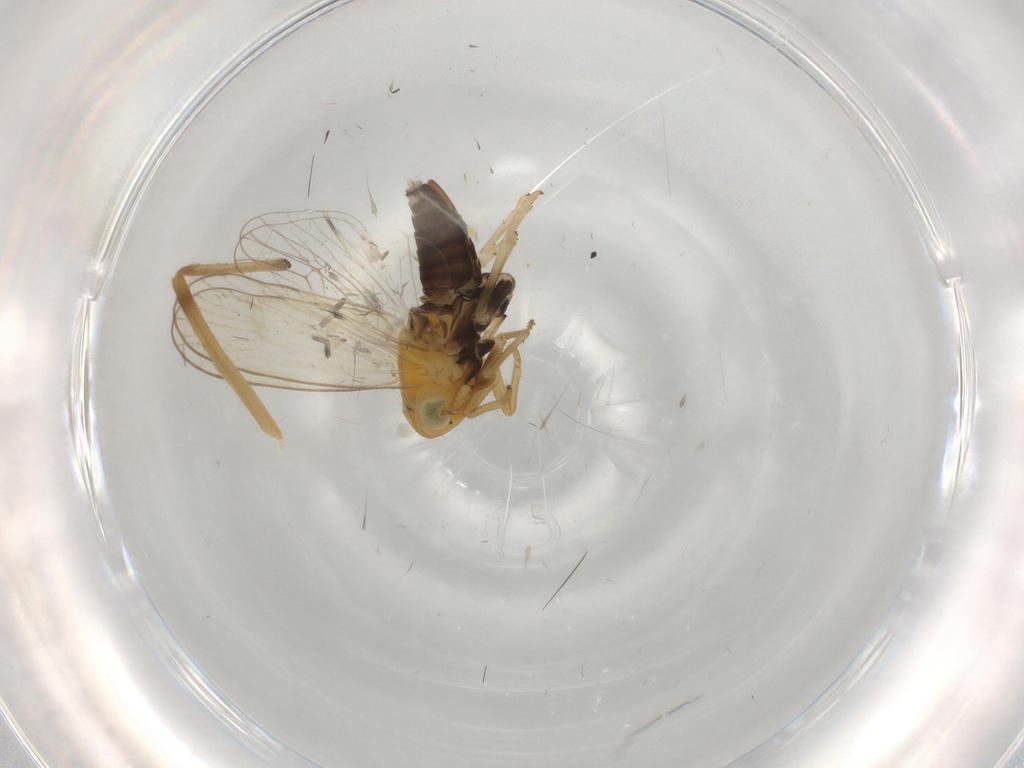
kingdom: Animalia
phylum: Arthropoda
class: Insecta
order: Hemiptera
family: Delphacidae
